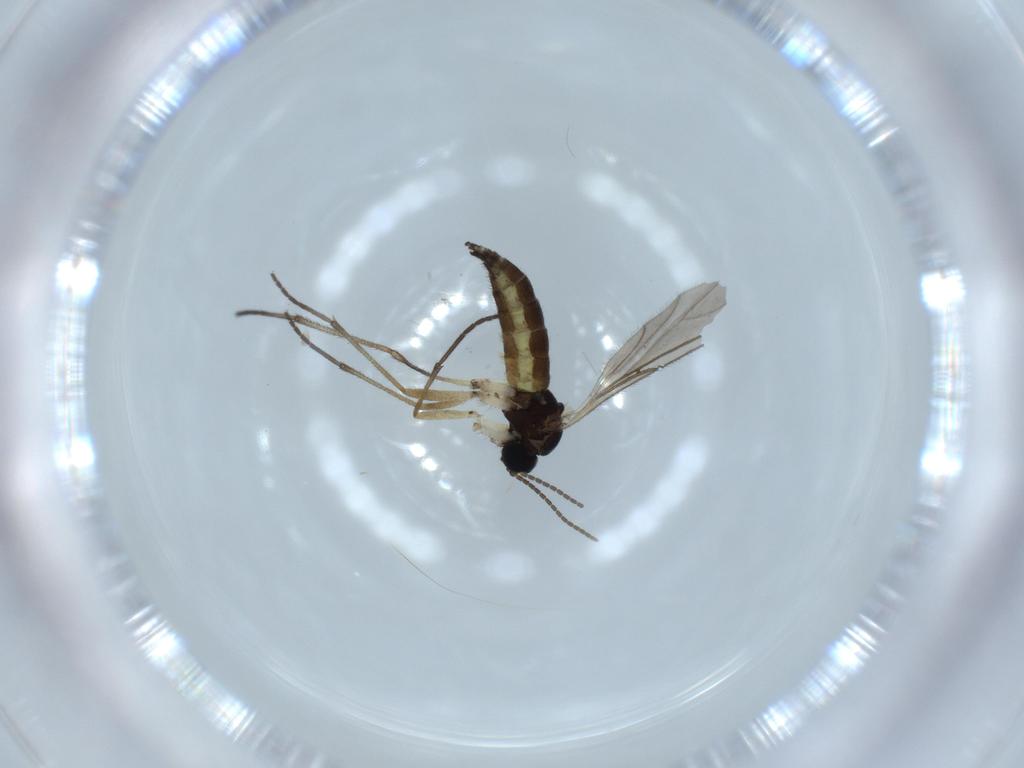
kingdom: Animalia
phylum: Arthropoda
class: Insecta
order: Diptera
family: Sciaridae
